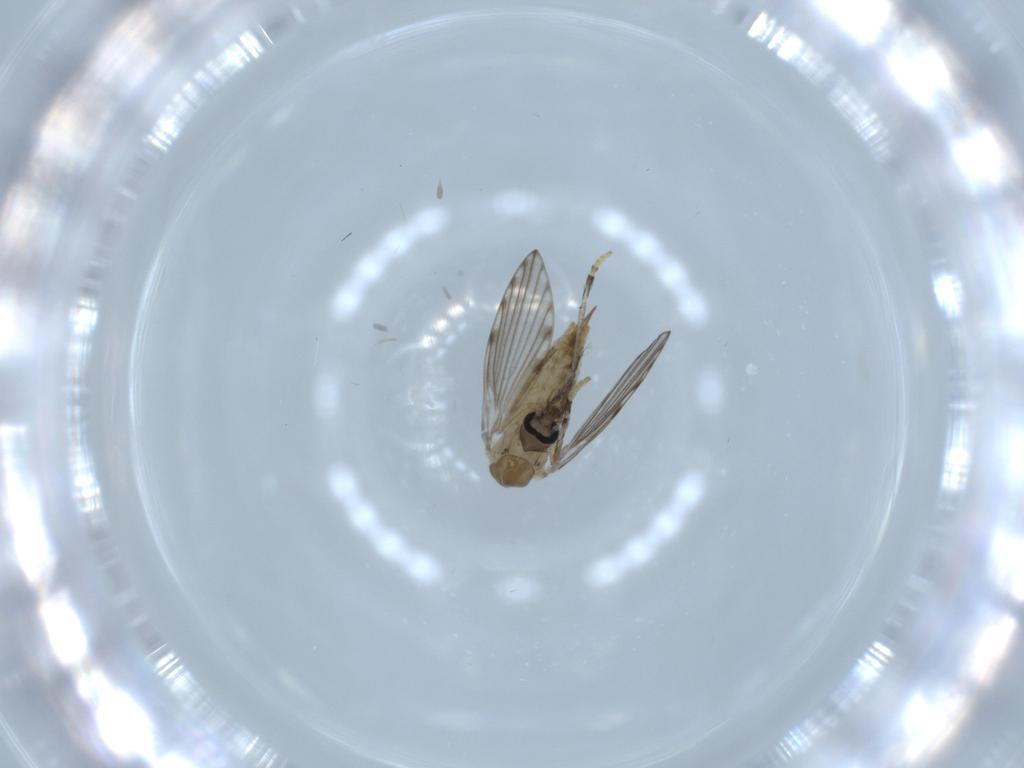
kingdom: Animalia
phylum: Arthropoda
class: Insecta
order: Diptera
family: Psychodidae
